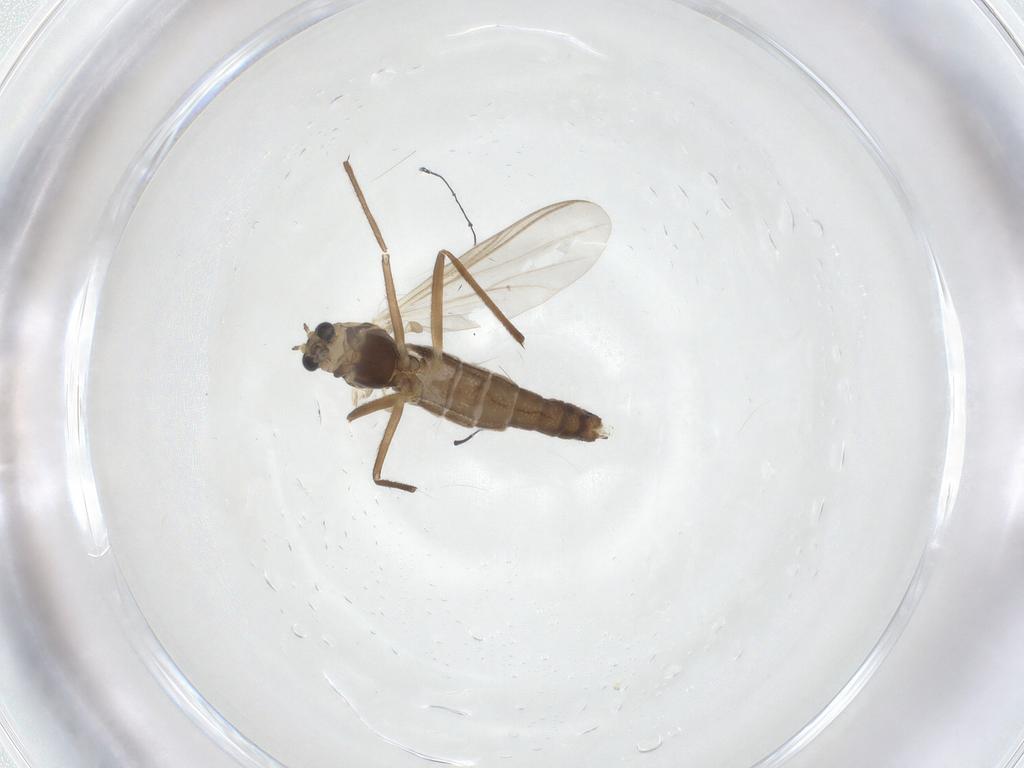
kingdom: Animalia
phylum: Arthropoda
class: Insecta
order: Diptera
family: Chironomidae
